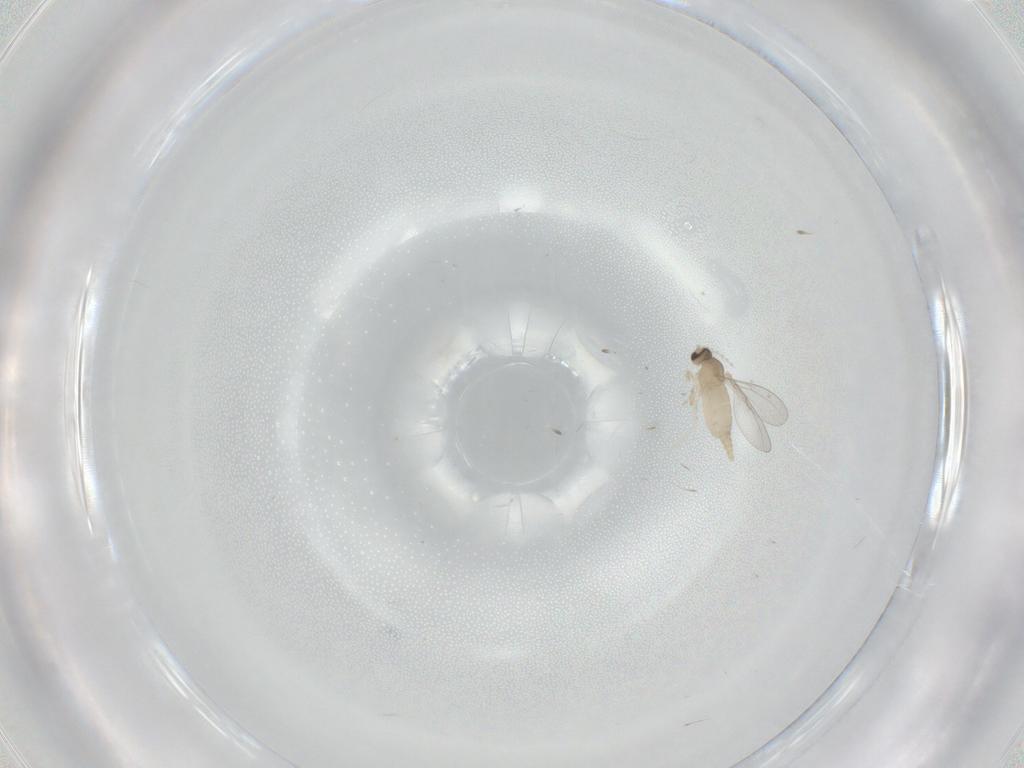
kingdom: Animalia
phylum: Arthropoda
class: Insecta
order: Diptera
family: Cecidomyiidae
